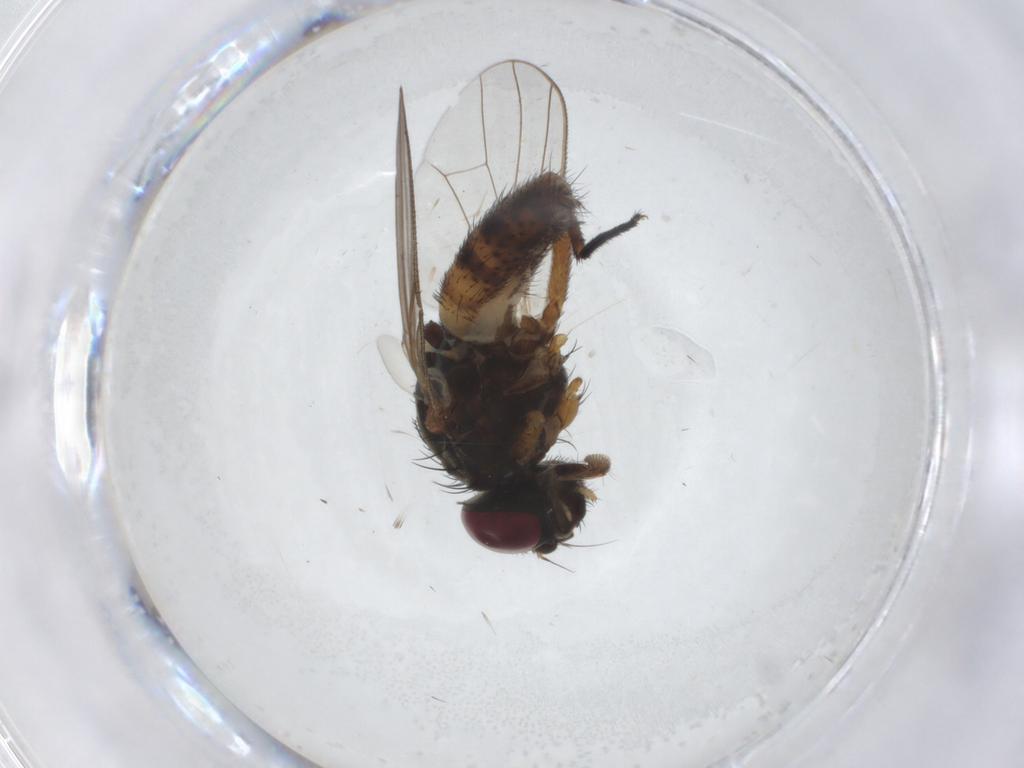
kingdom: Animalia
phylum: Arthropoda
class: Insecta
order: Diptera
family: Fannia
